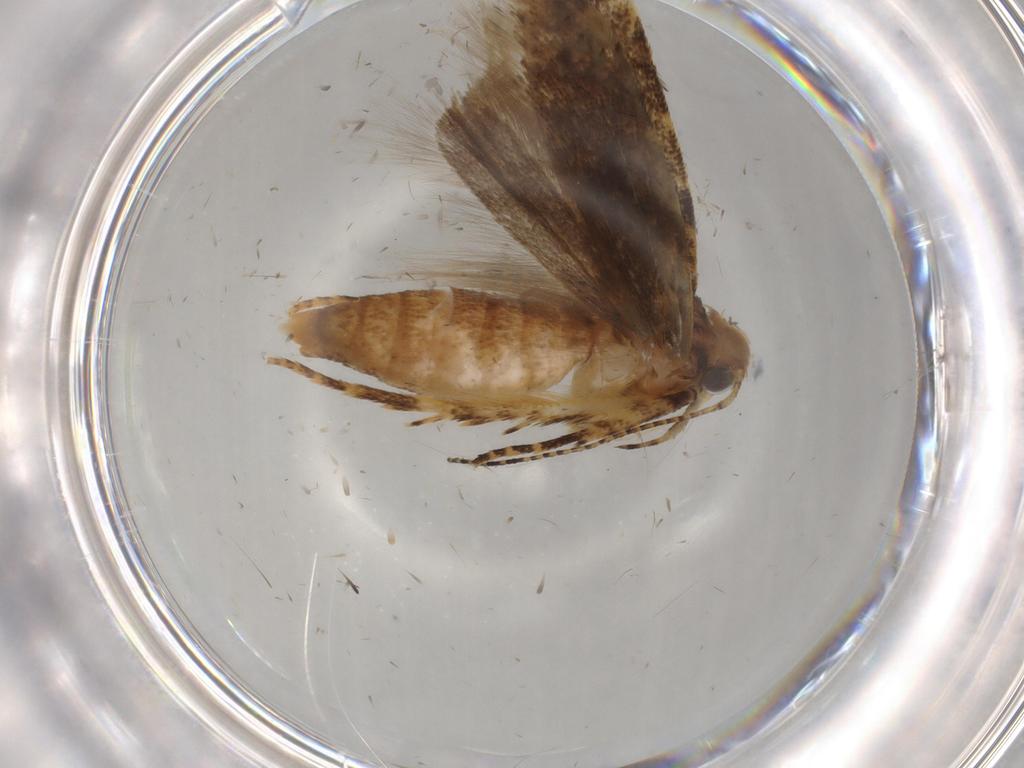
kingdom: Animalia
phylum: Arthropoda
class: Insecta
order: Lepidoptera
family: Gelechiidae
